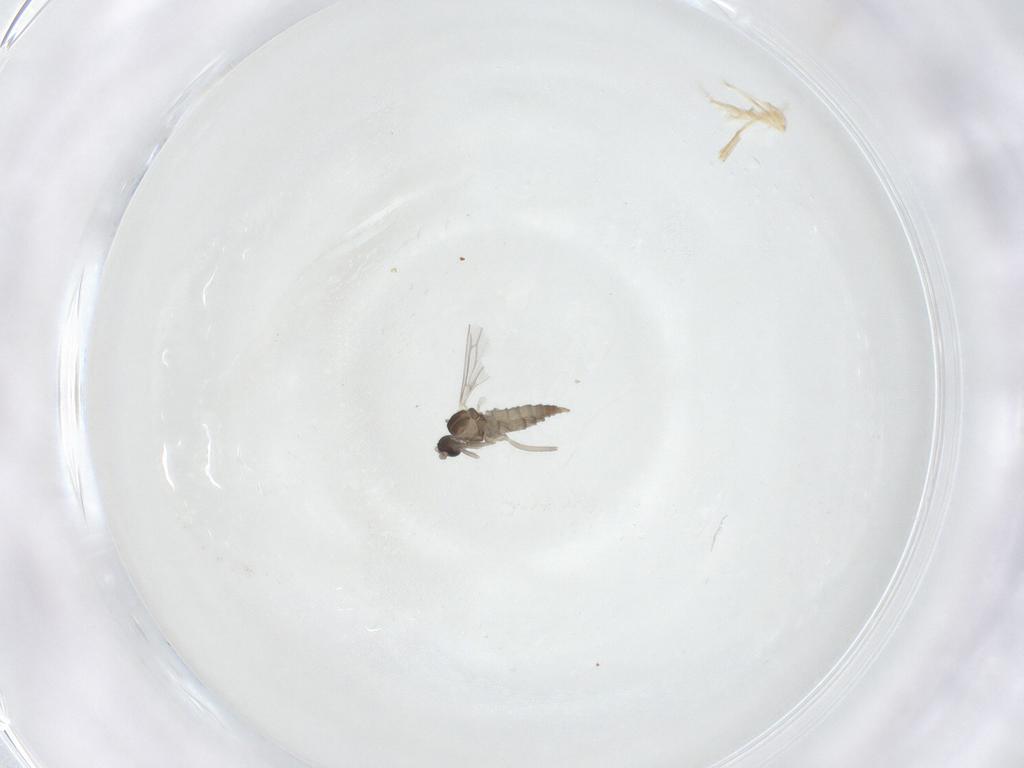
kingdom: Animalia
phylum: Arthropoda
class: Insecta
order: Diptera
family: Cecidomyiidae
